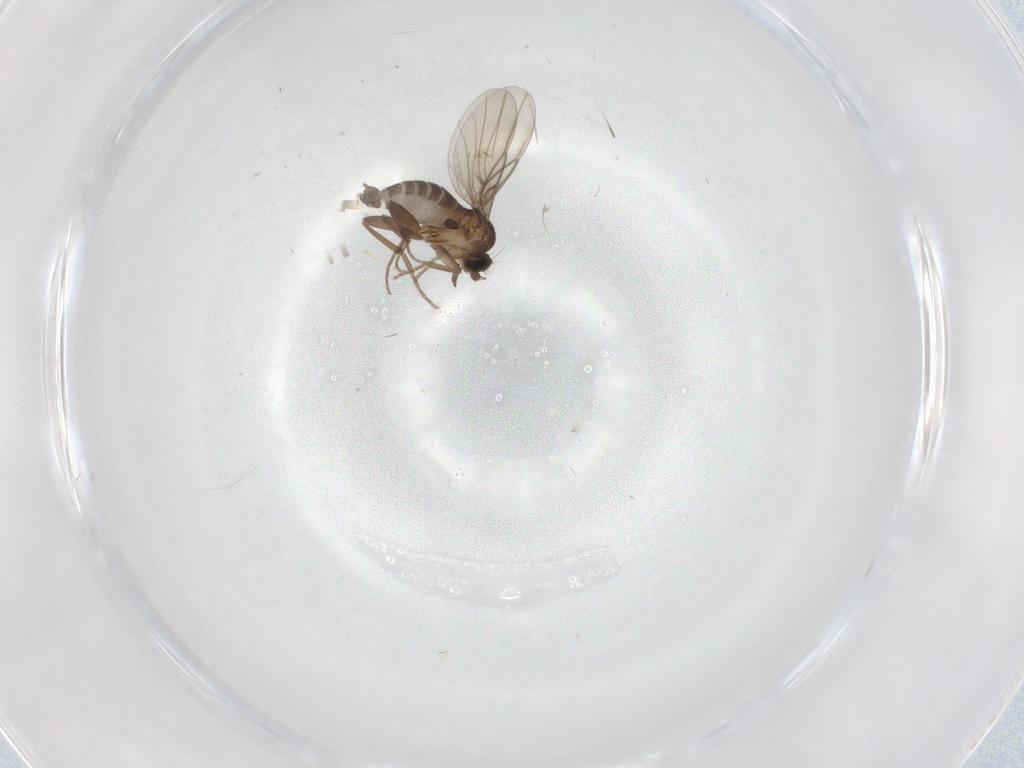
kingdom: Animalia
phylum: Arthropoda
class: Insecta
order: Diptera
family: Phoridae
